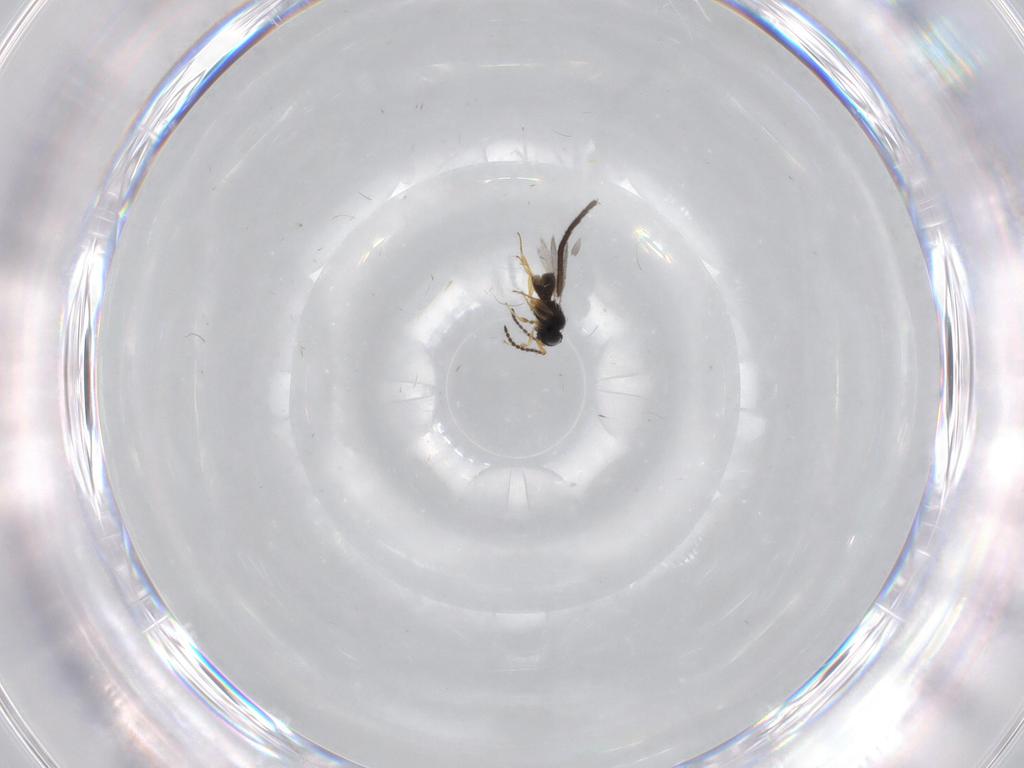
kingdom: Animalia
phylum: Arthropoda
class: Insecta
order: Hymenoptera
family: Scelionidae
